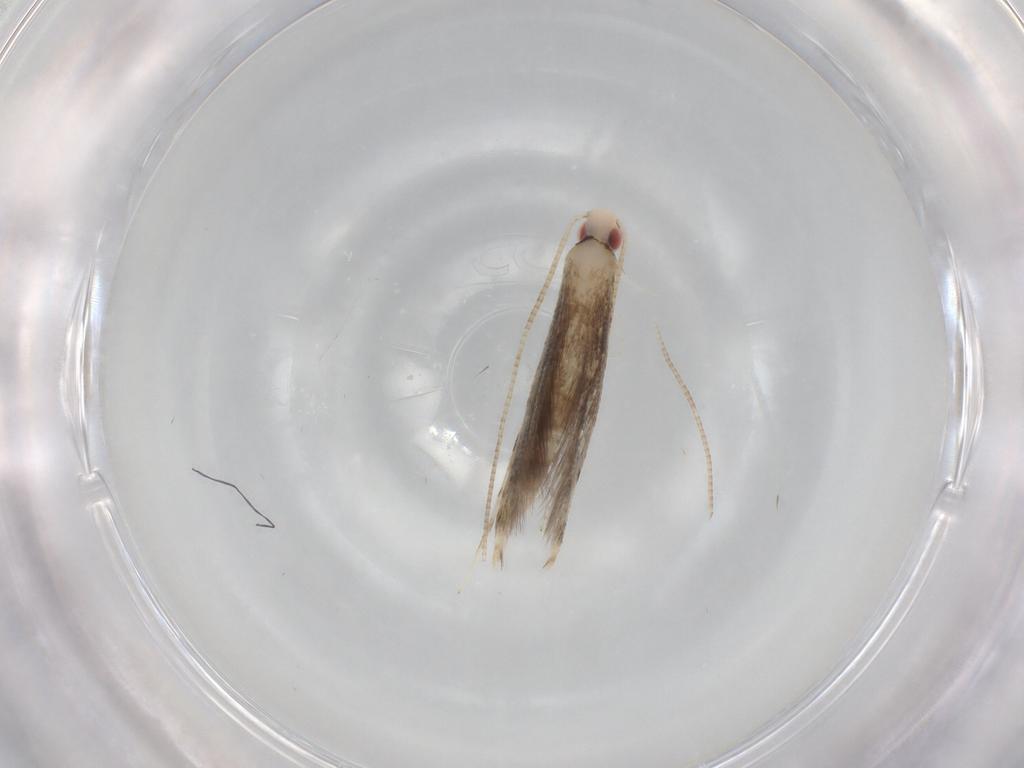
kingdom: Animalia
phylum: Arthropoda
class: Insecta
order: Lepidoptera
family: Gracillariidae
